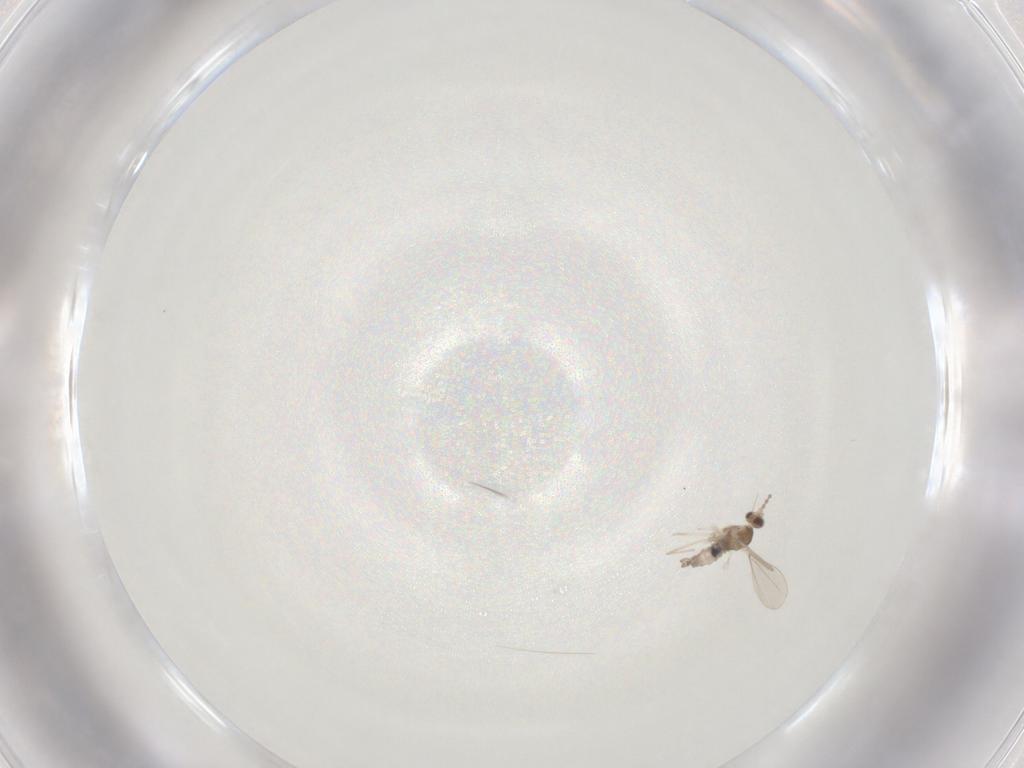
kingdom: Animalia
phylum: Arthropoda
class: Insecta
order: Diptera
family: Cecidomyiidae
